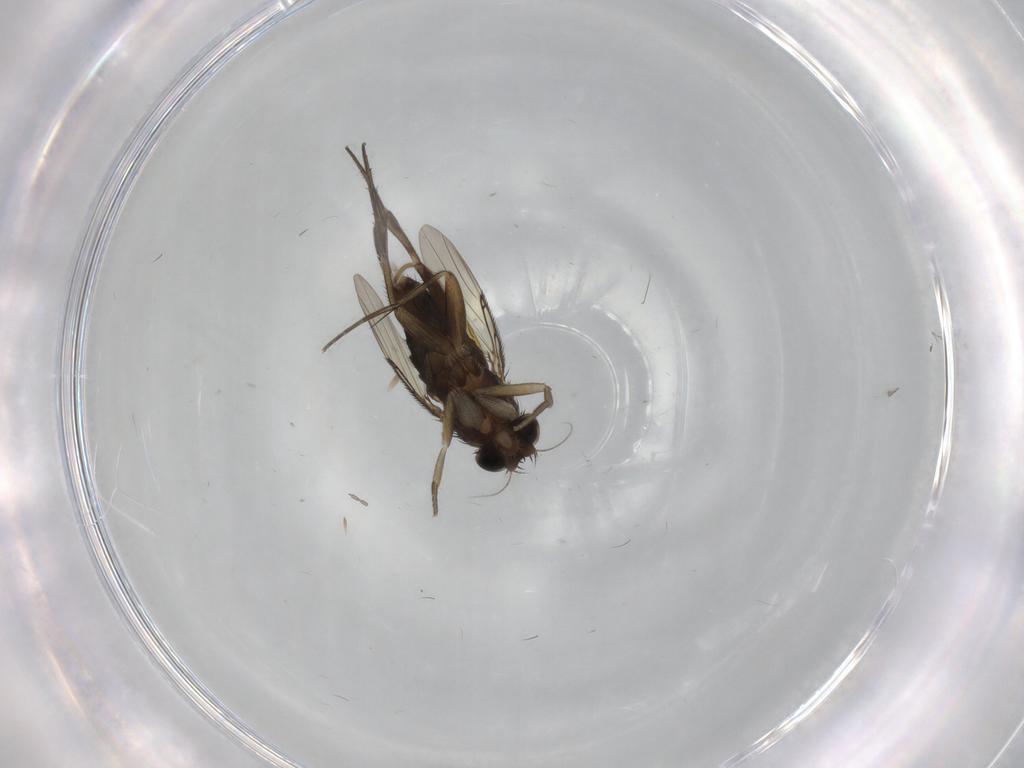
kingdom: Animalia
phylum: Arthropoda
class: Insecta
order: Diptera
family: Phoridae
